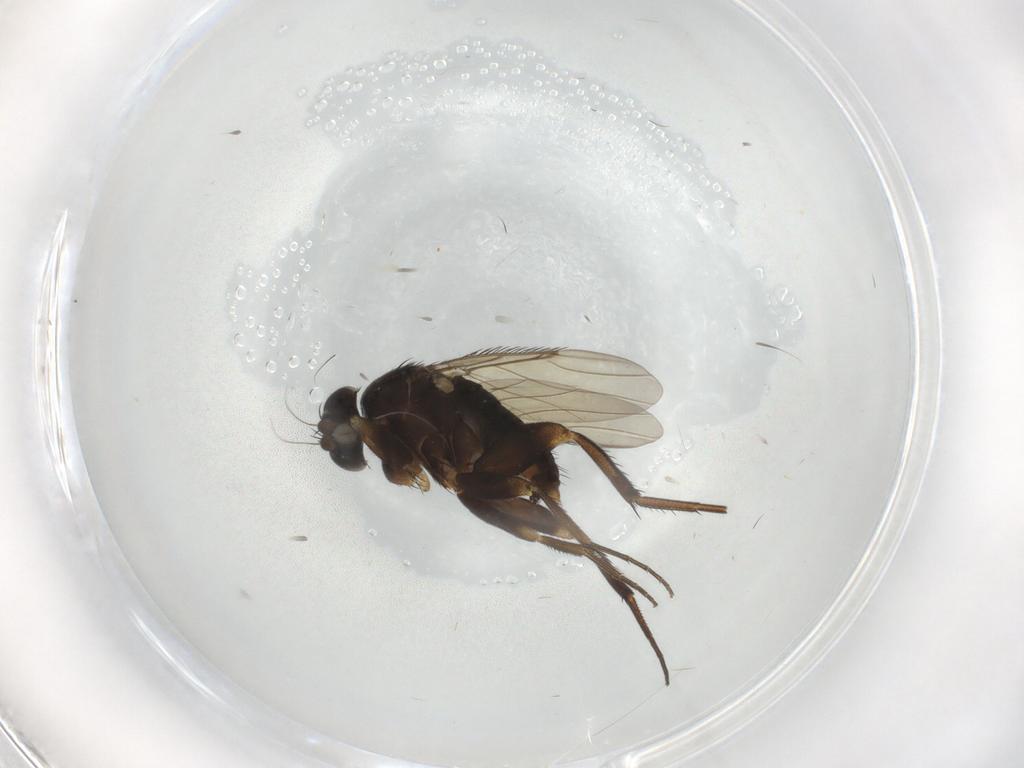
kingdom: Animalia
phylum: Arthropoda
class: Insecta
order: Diptera
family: Phoridae
